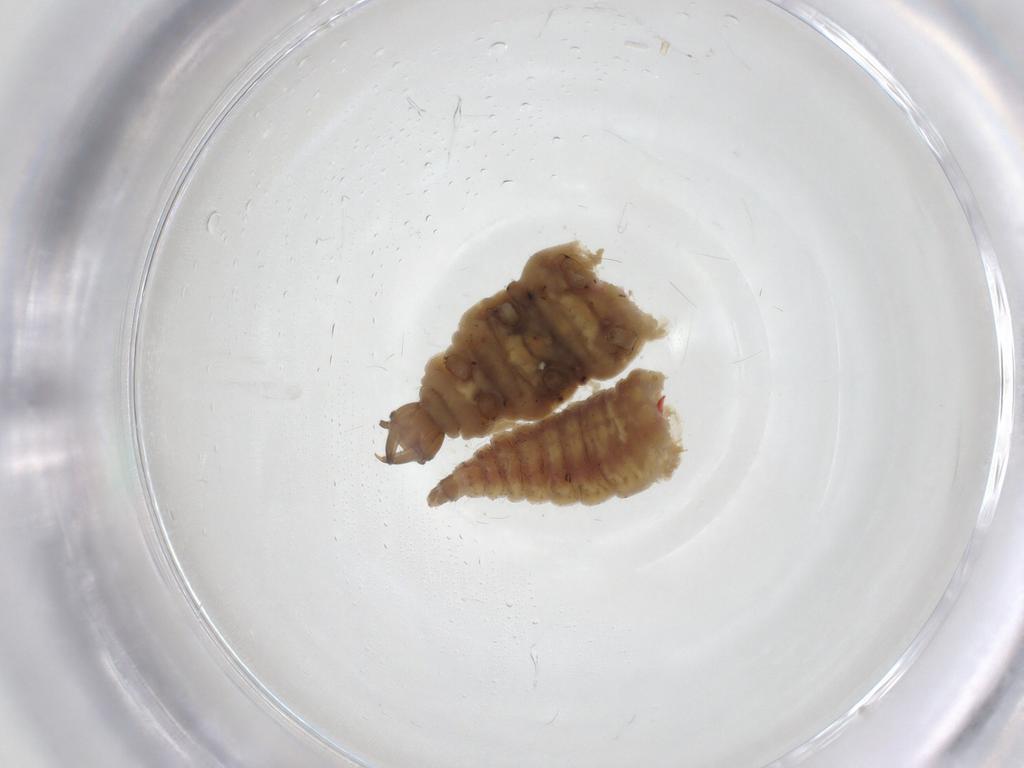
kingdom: Animalia
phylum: Arthropoda
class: Insecta
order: Neuroptera
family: Hemerobiidae
